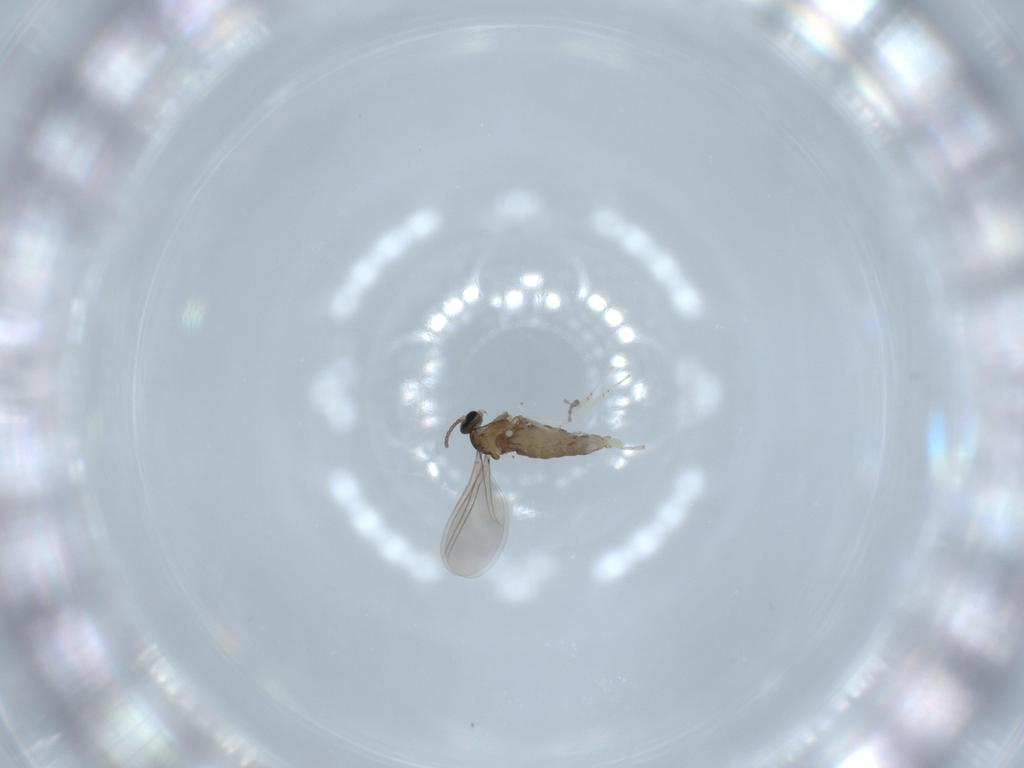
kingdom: Animalia
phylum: Arthropoda
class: Insecta
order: Diptera
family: Cecidomyiidae
